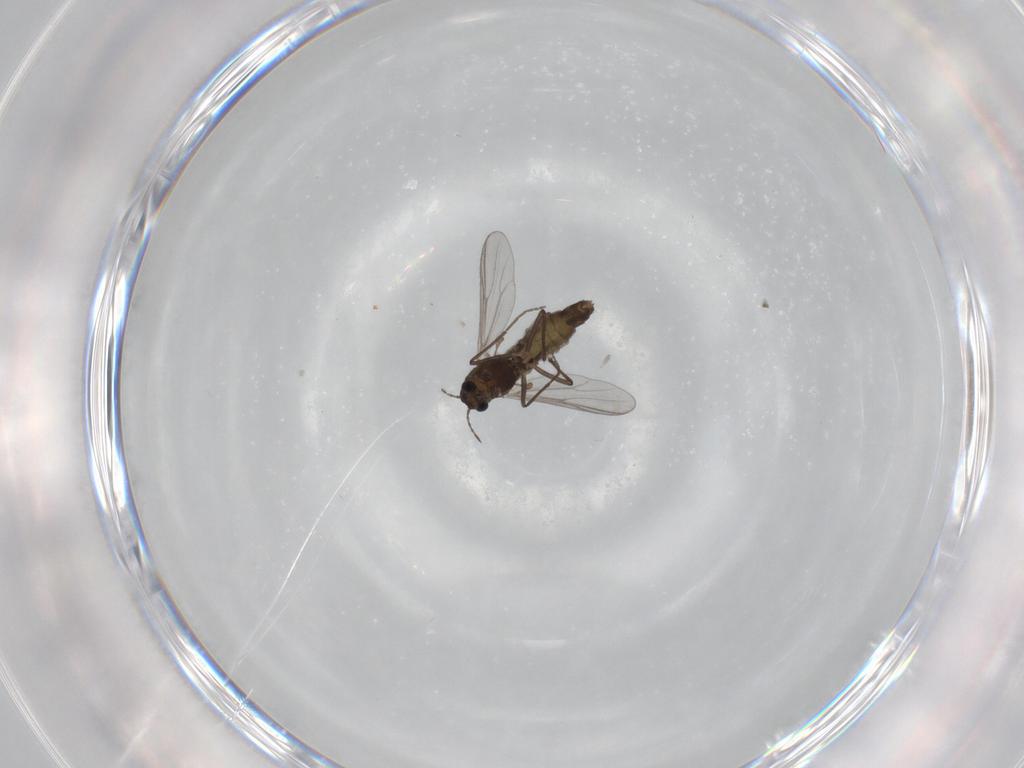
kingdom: Animalia
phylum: Arthropoda
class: Insecta
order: Diptera
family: Chironomidae
